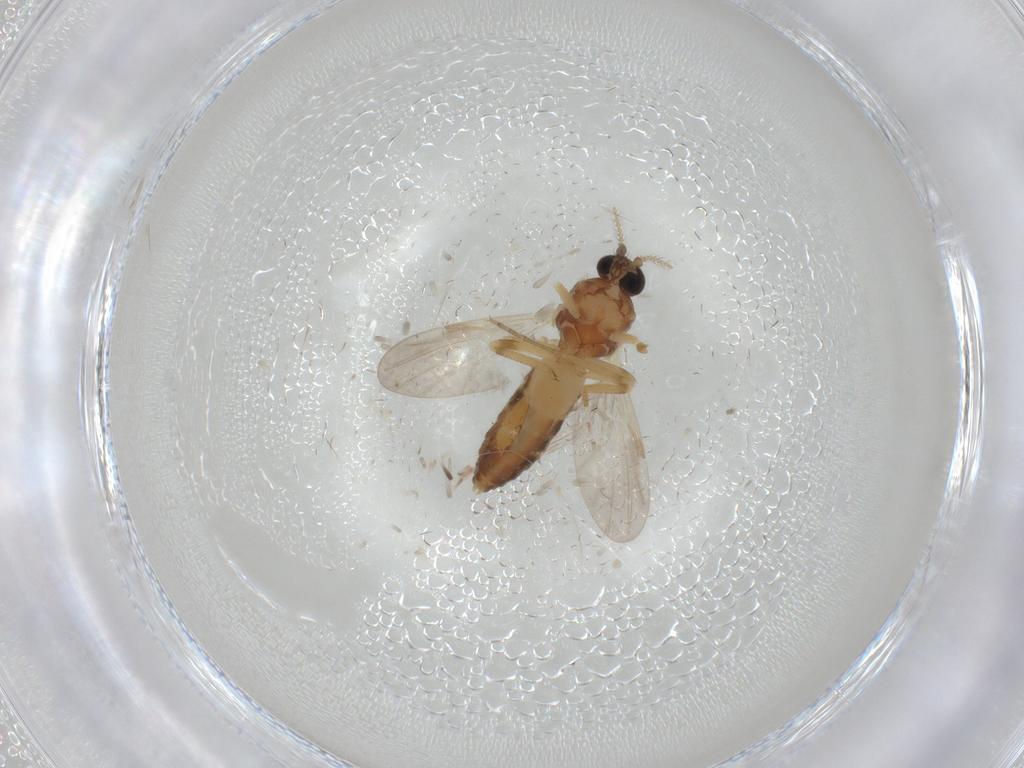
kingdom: Animalia
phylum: Arthropoda
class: Insecta
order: Diptera
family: Ceratopogonidae
